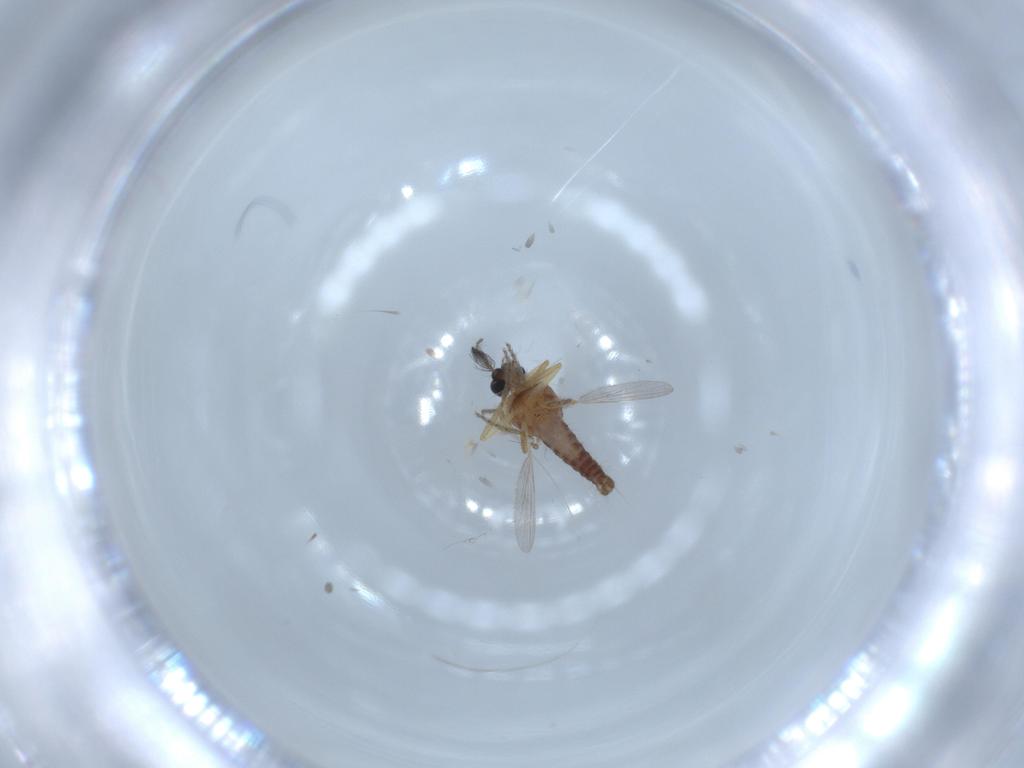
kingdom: Animalia
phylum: Arthropoda
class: Insecta
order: Diptera
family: Ceratopogonidae
